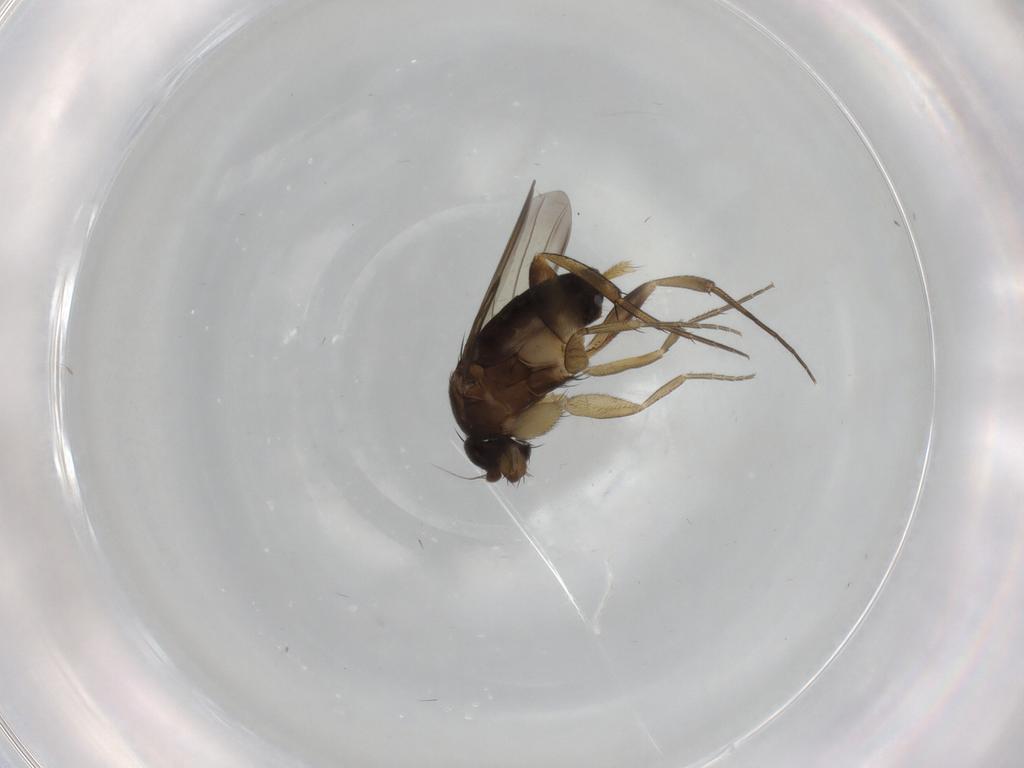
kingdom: Animalia
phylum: Arthropoda
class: Insecta
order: Diptera
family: Phoridae
